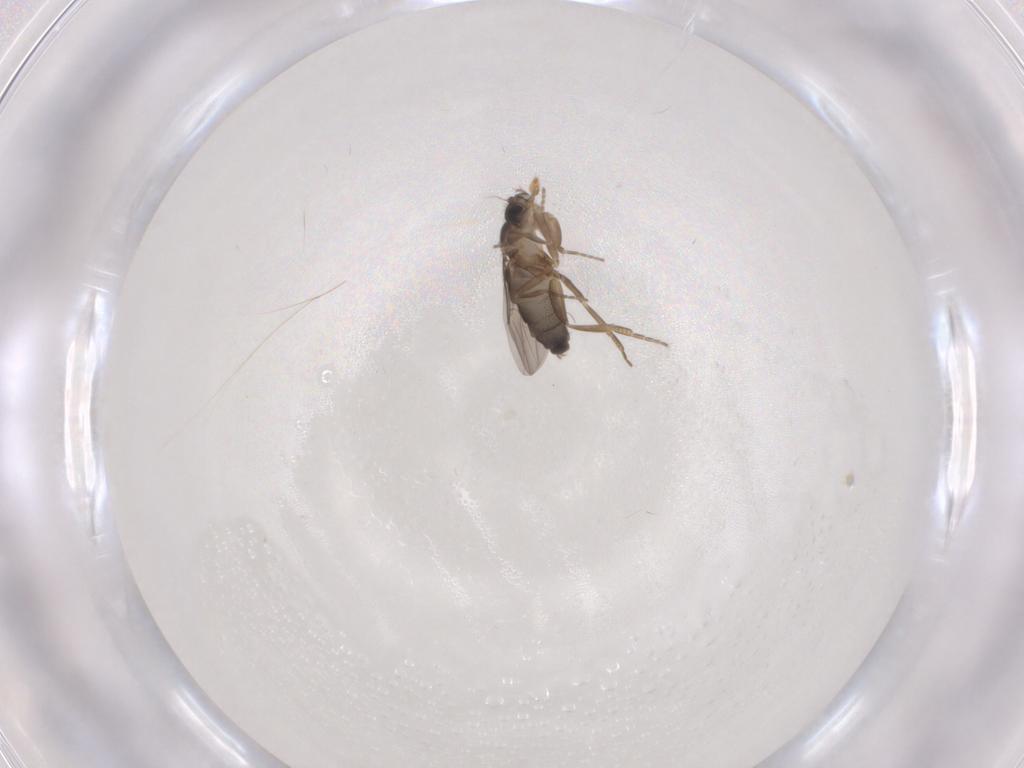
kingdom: Animalia
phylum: Arthropoda
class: Insecta
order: Diptera
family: Phoridae
